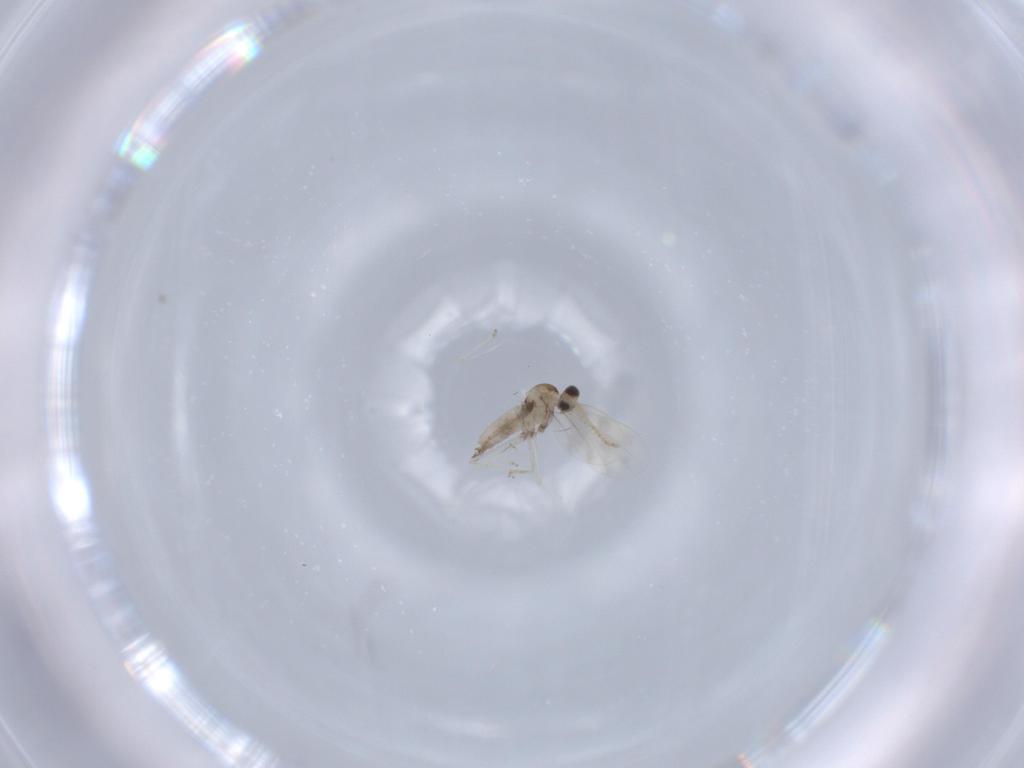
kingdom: Animalia
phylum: Arthropoda
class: Insecta
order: Diptera
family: Cecidomyiidae
